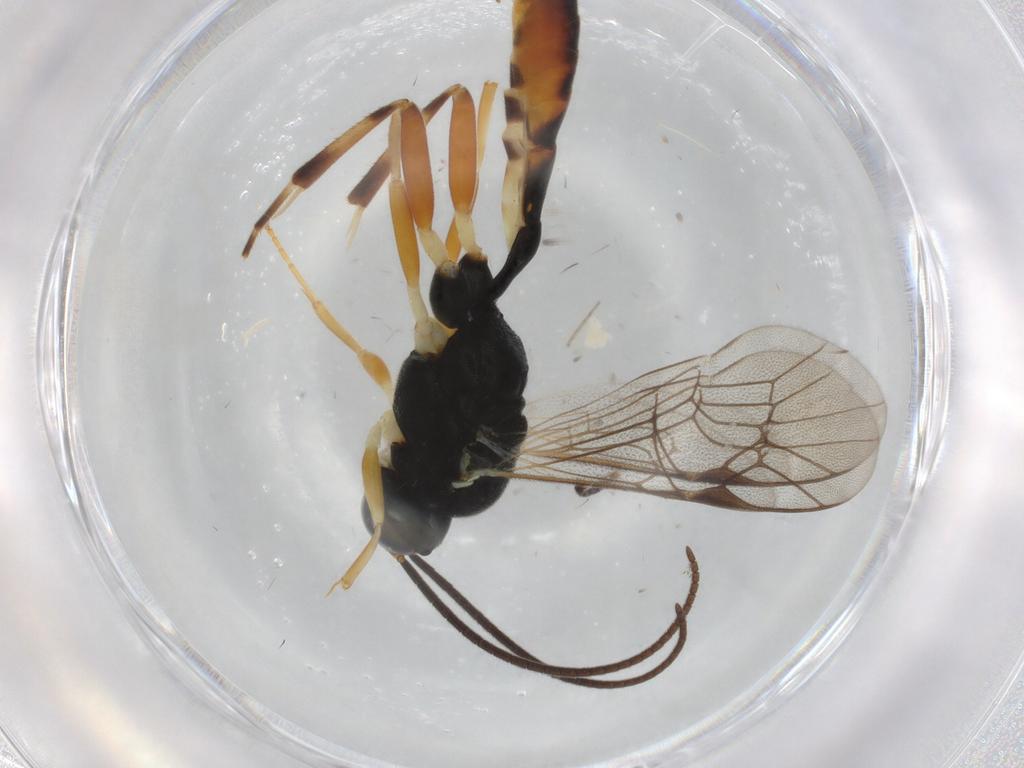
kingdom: Animalia
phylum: Arthropoda
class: Insecta
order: Hymenoptera
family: Ichneumonidae
